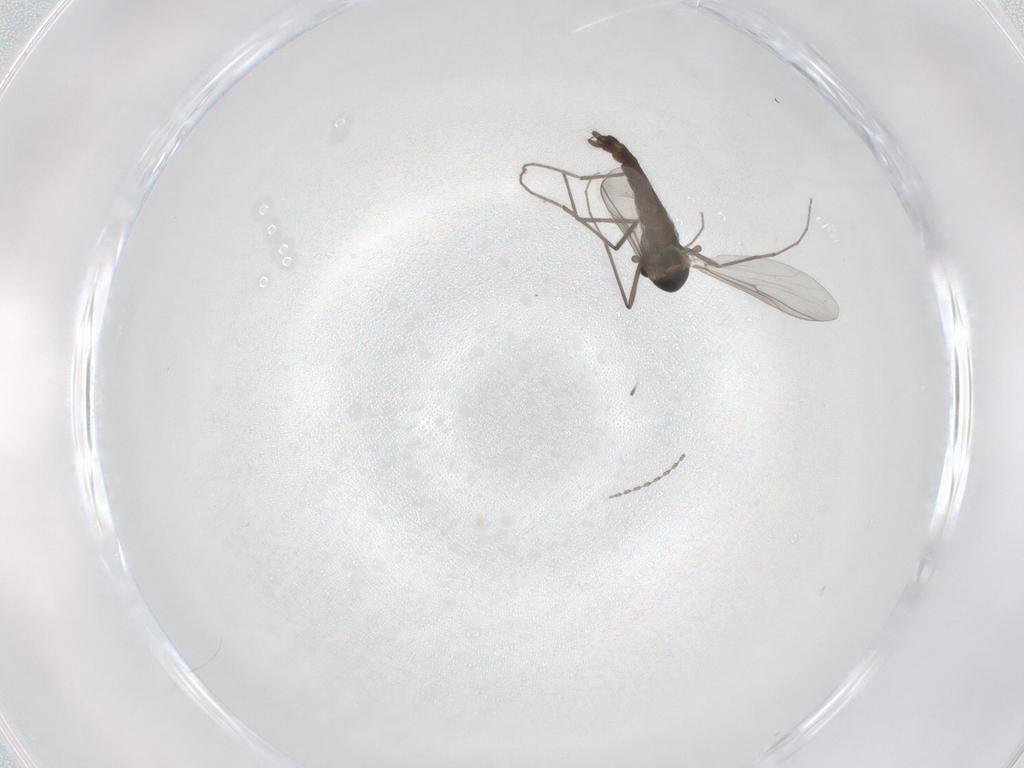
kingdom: Animalia
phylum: Arthropoda
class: Insecta
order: Diptera
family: Chironomidae
